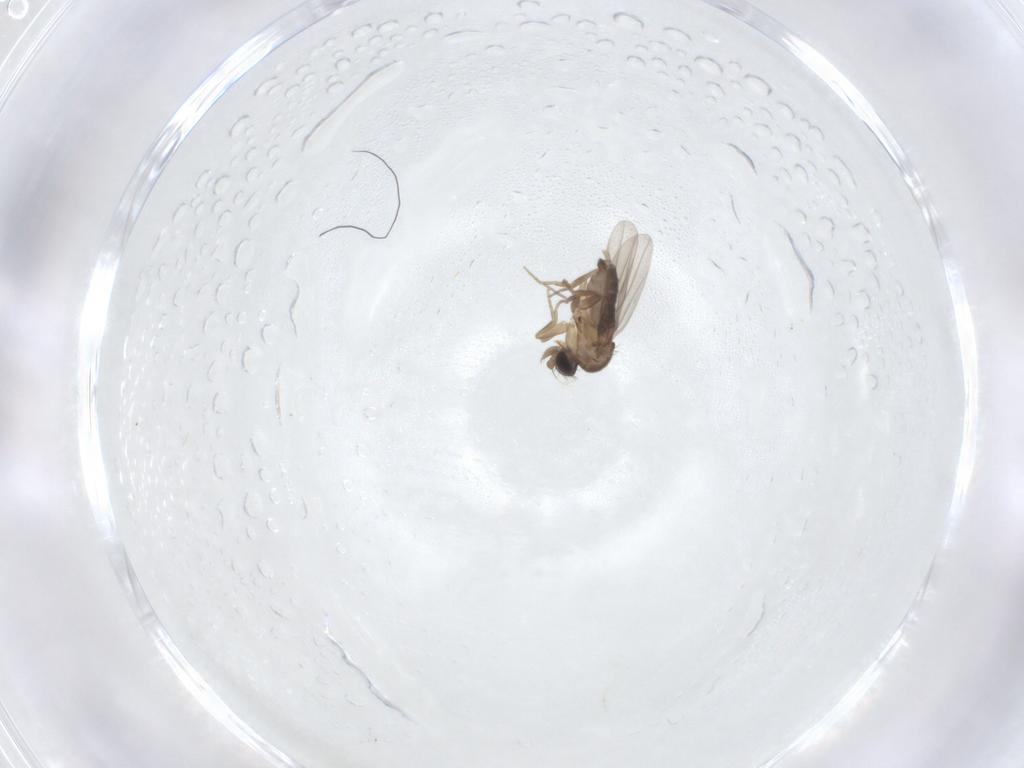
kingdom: Animalia
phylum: Arthropoda
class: Insecta
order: Diptera
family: Phoridae
